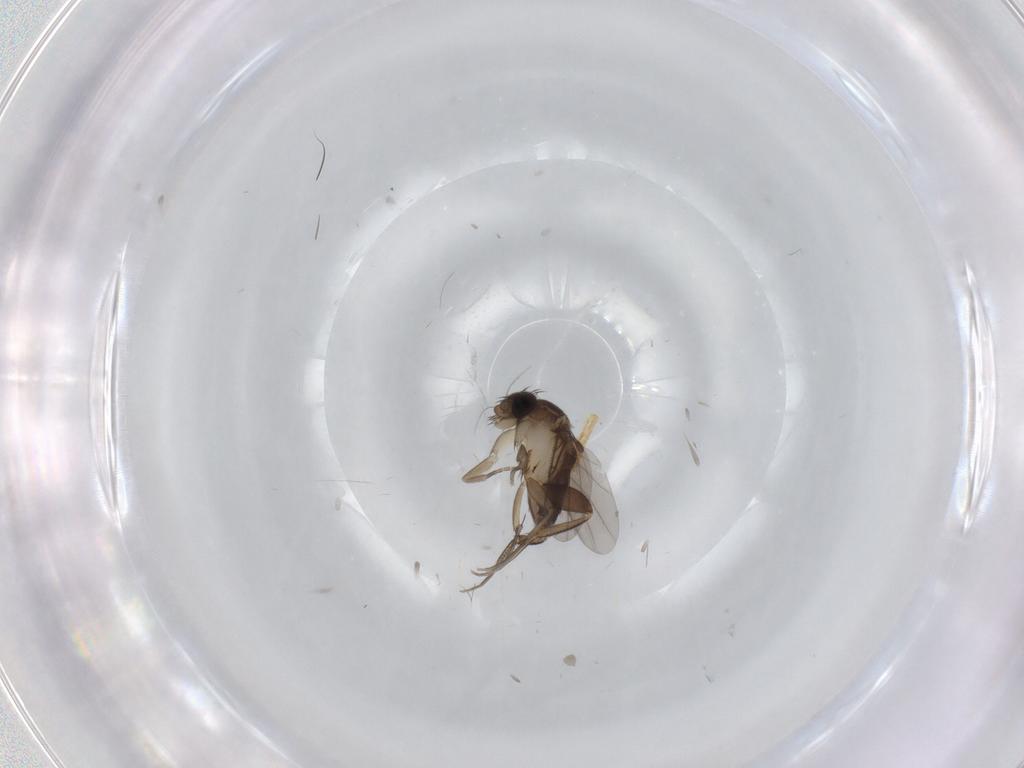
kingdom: Animalia
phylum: Arthropoda
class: Insecta
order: Diptera
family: Phoridae
